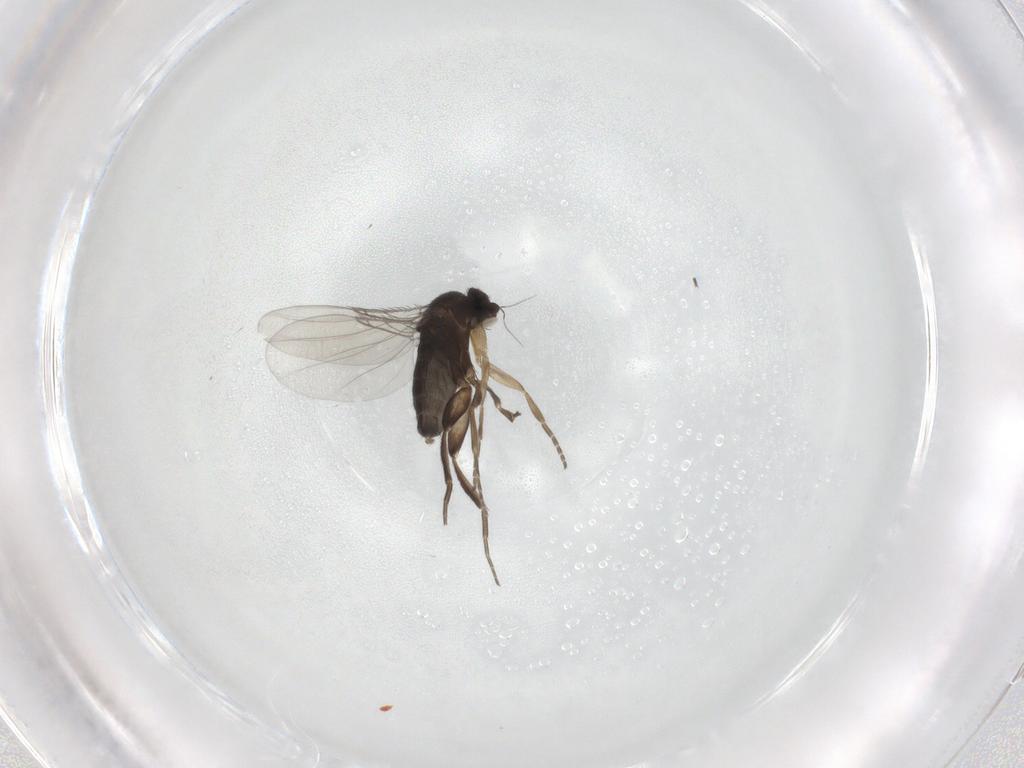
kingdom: Animalia
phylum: Arthropoda
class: Insecta
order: Diptera
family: Phoridae
